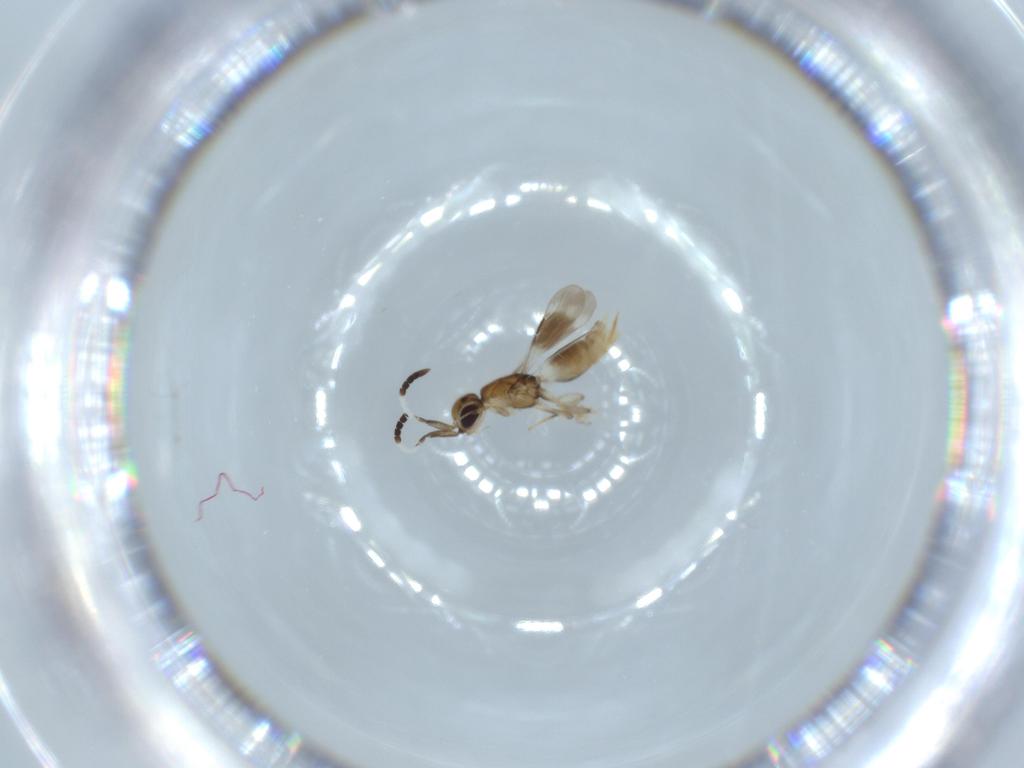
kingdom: Animalia
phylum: Arthropoda
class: Insecta
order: Hymenoptera
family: Megaspilidae
